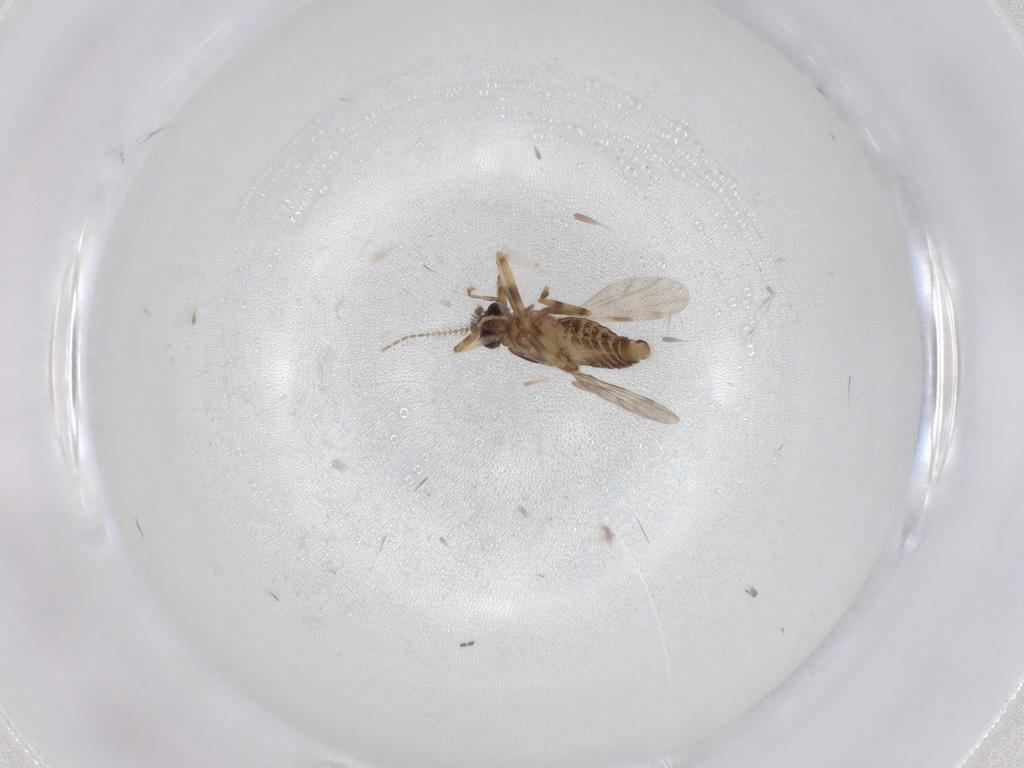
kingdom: Animalia
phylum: Arthropoda
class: Insecta
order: Diptera
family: Ceratopogonidae
